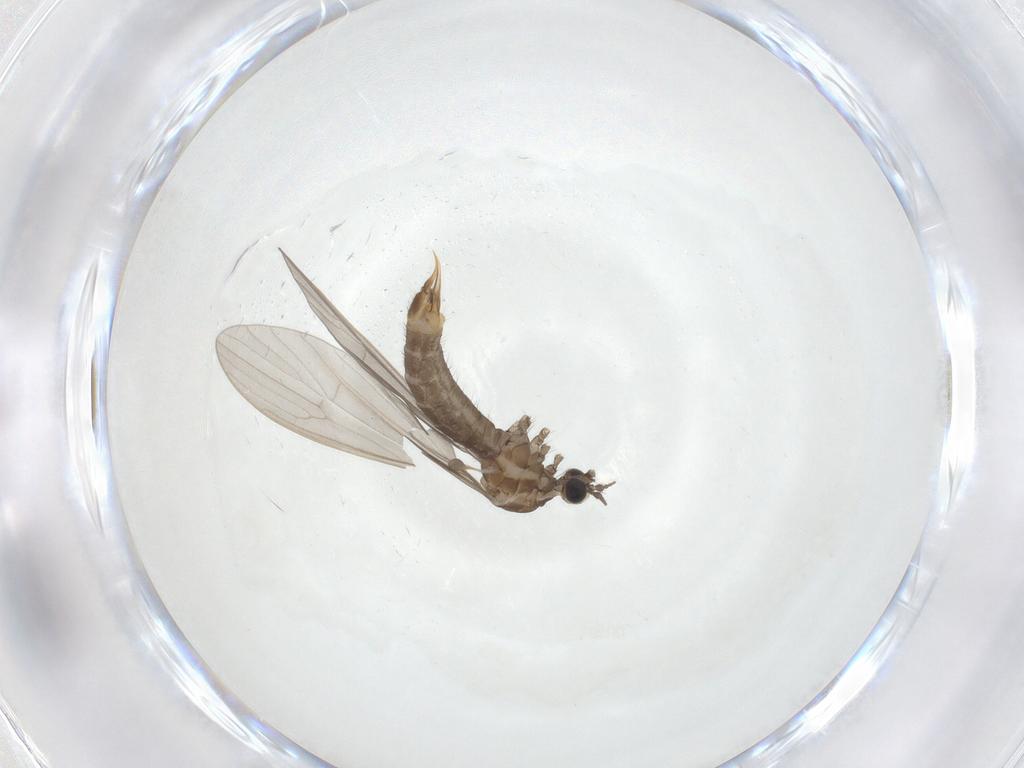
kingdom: Animalia
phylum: Arthropoda
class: Insecta
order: Diptera
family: Limoniidae
